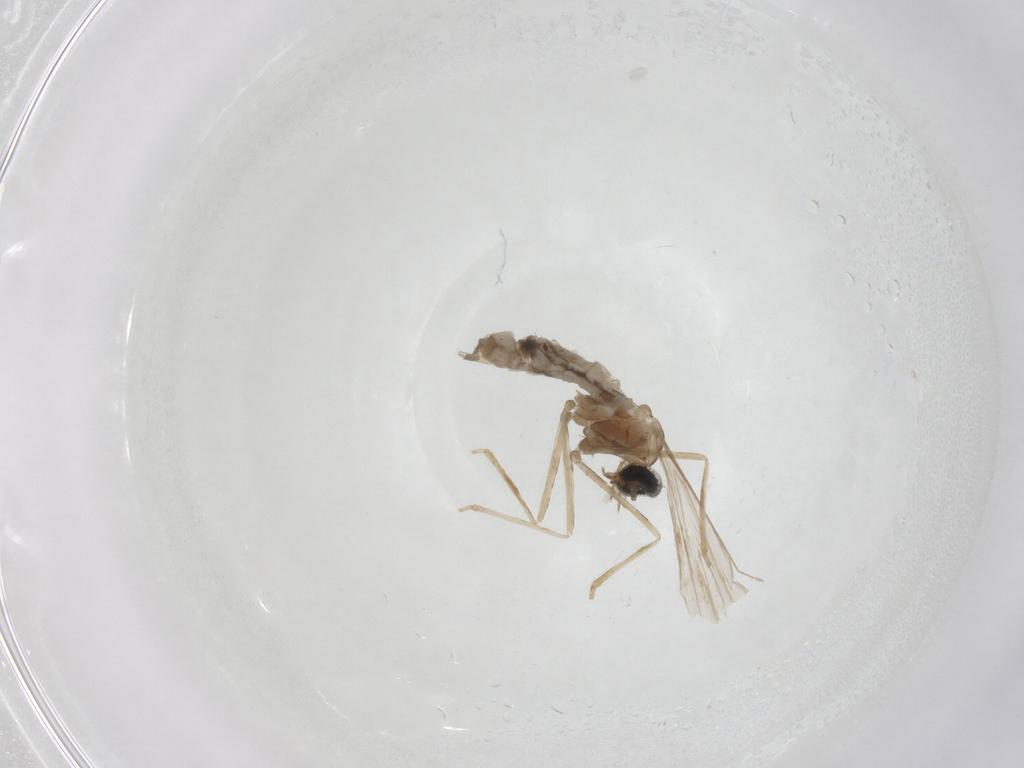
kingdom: Animalia
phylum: Arthropoda
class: Insecta
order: Diptera
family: Cecidomyiidae
